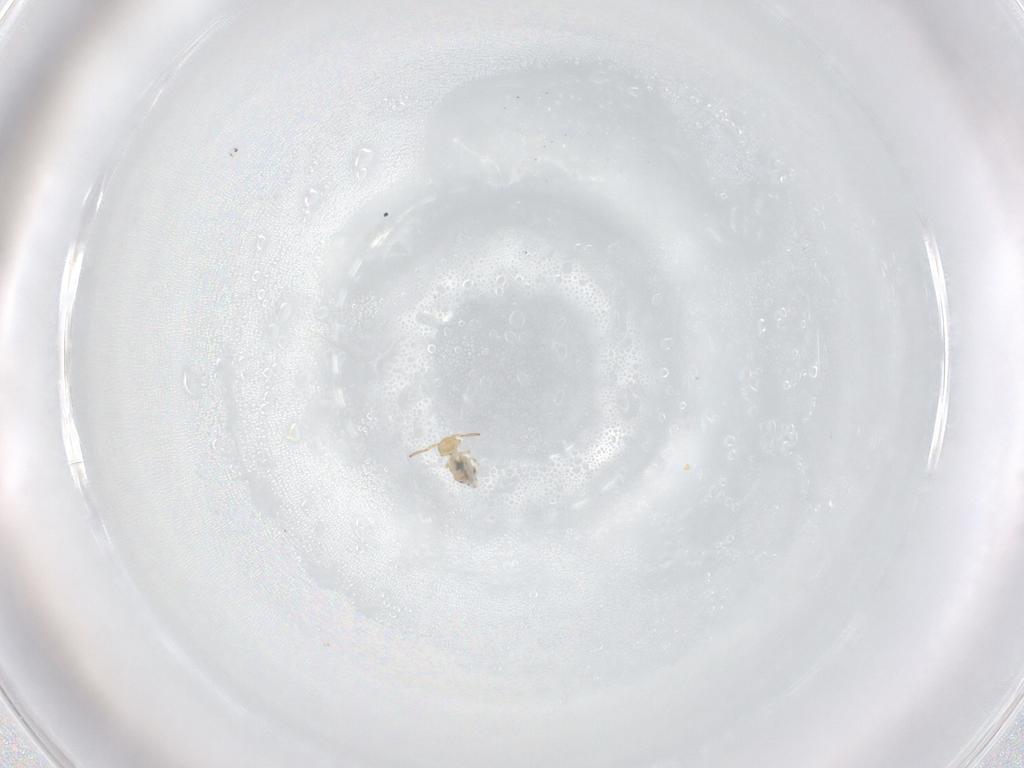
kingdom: Animalia
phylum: Arthropoda
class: Collembola
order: Symphypleona
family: Bourletiellidae
